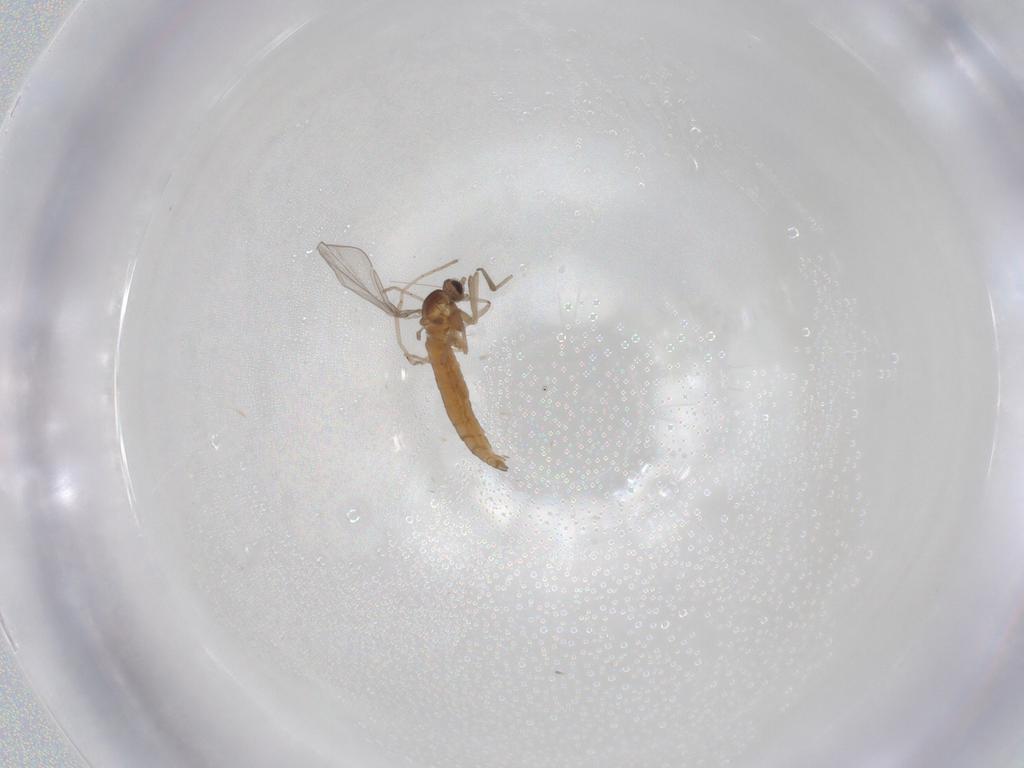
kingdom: Animalia
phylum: Arthropoda
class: Insecta
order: Diptera
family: Cecidomyiidae
